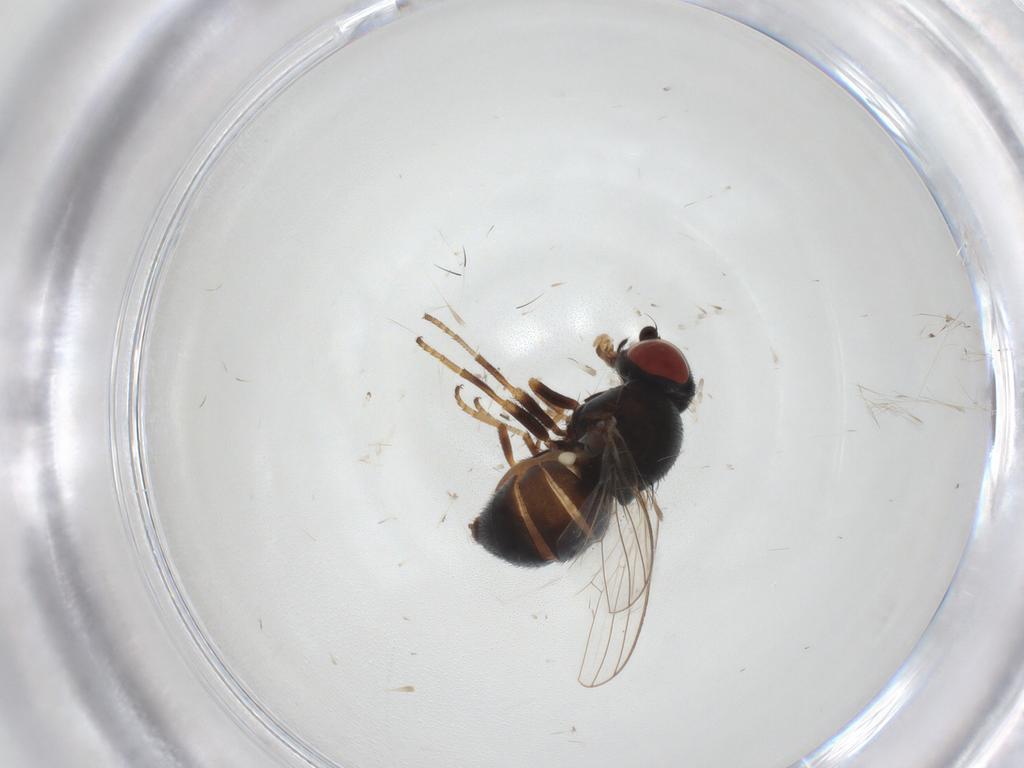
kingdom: Animalia
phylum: Arthropoda
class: Insecta
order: Diptera
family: Chamaemyiidae
